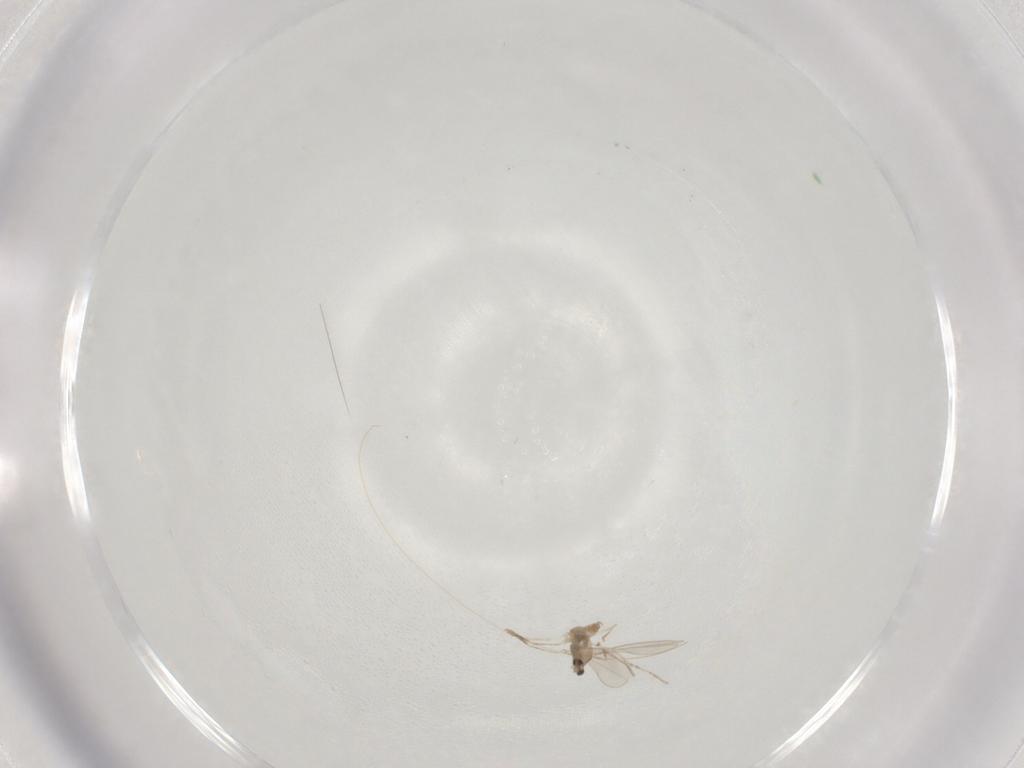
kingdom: Animalia
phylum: Arthropoda
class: Insecta
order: Diptera
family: Cecidomyiidae
